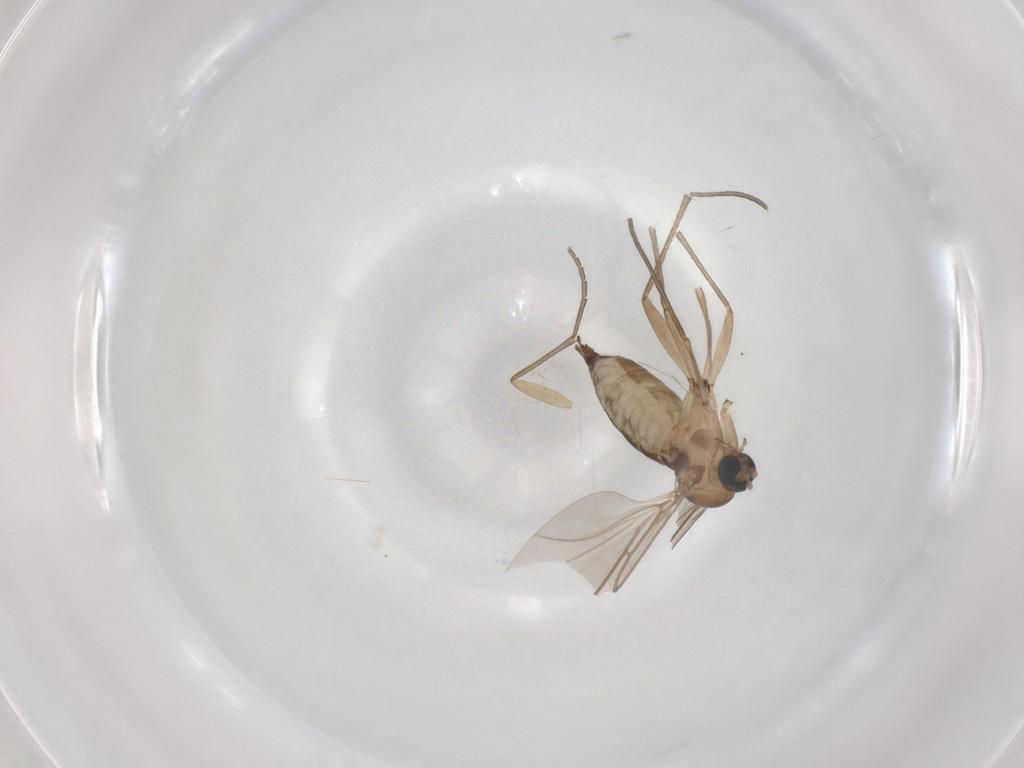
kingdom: Animalia
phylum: Arthropoda
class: Insecta
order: Diptera
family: Sciaridae
